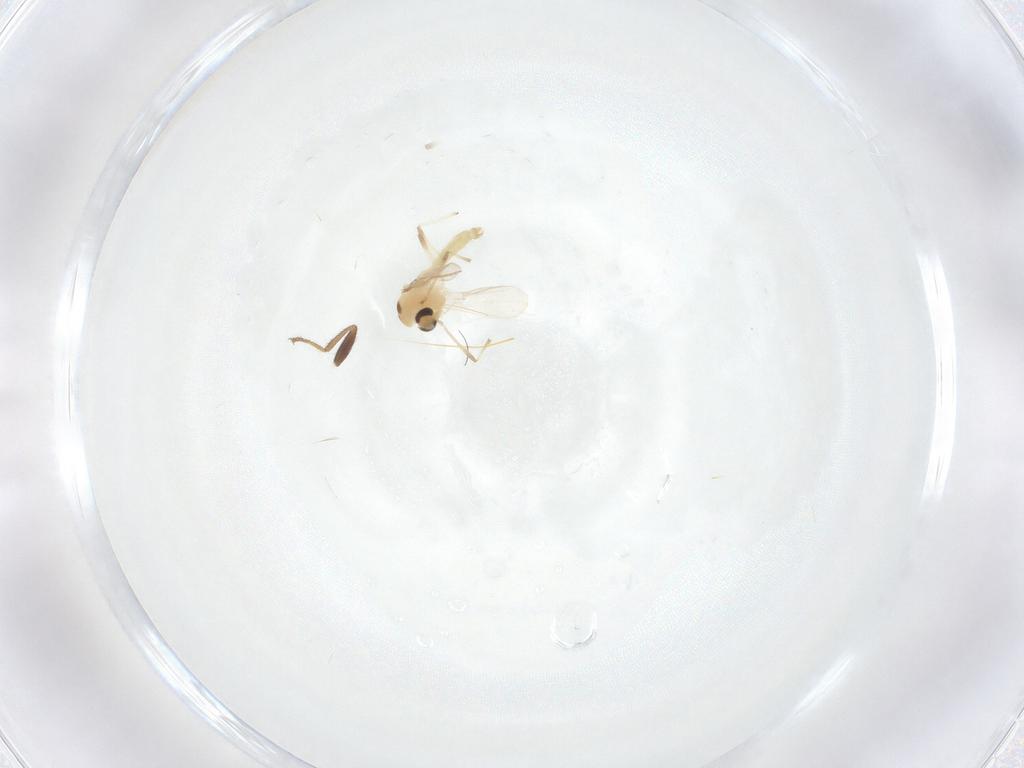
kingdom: Animalia
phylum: Arthropoda
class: Insecta
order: Diptera
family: Chironomidae
